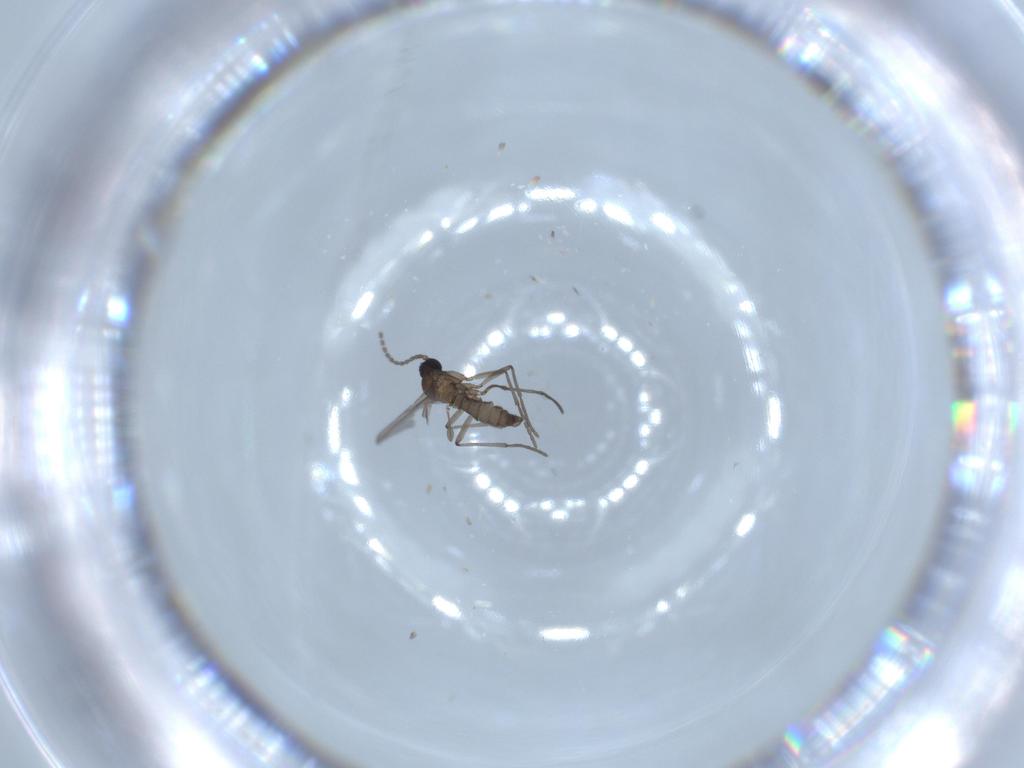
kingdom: Animalia
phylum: Arthropoda
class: Insecta
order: Diptera
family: Sciaridae
